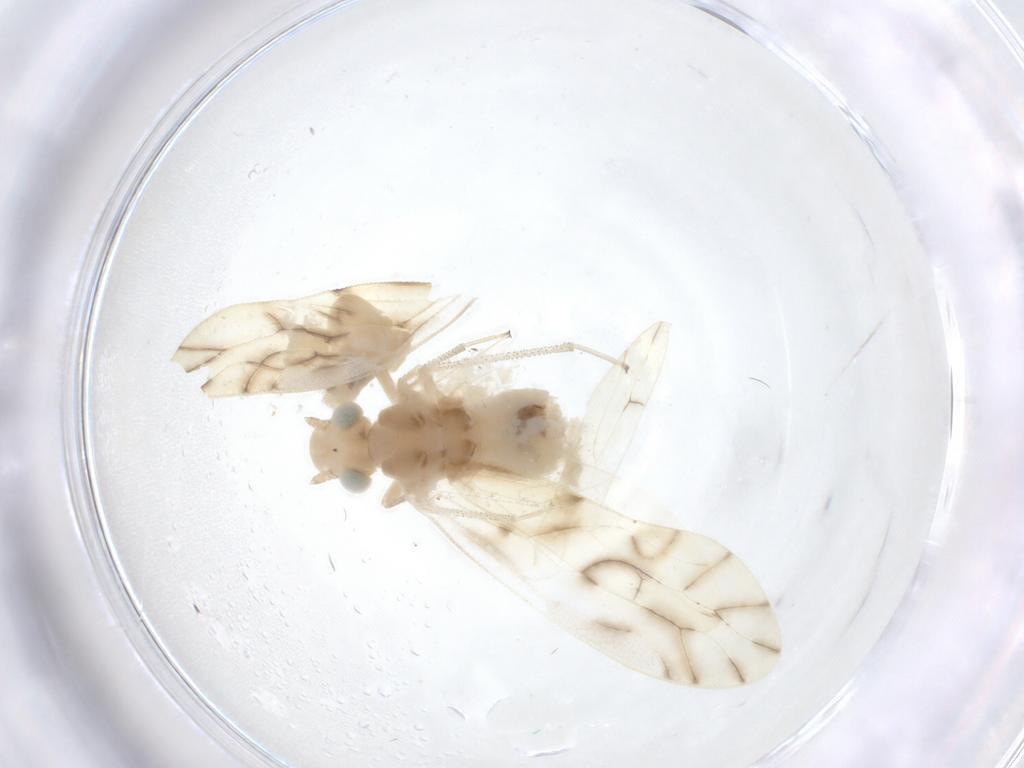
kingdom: Animalia
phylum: Arthropoda
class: Insecta
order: Psocodea
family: Caeciliusidae
